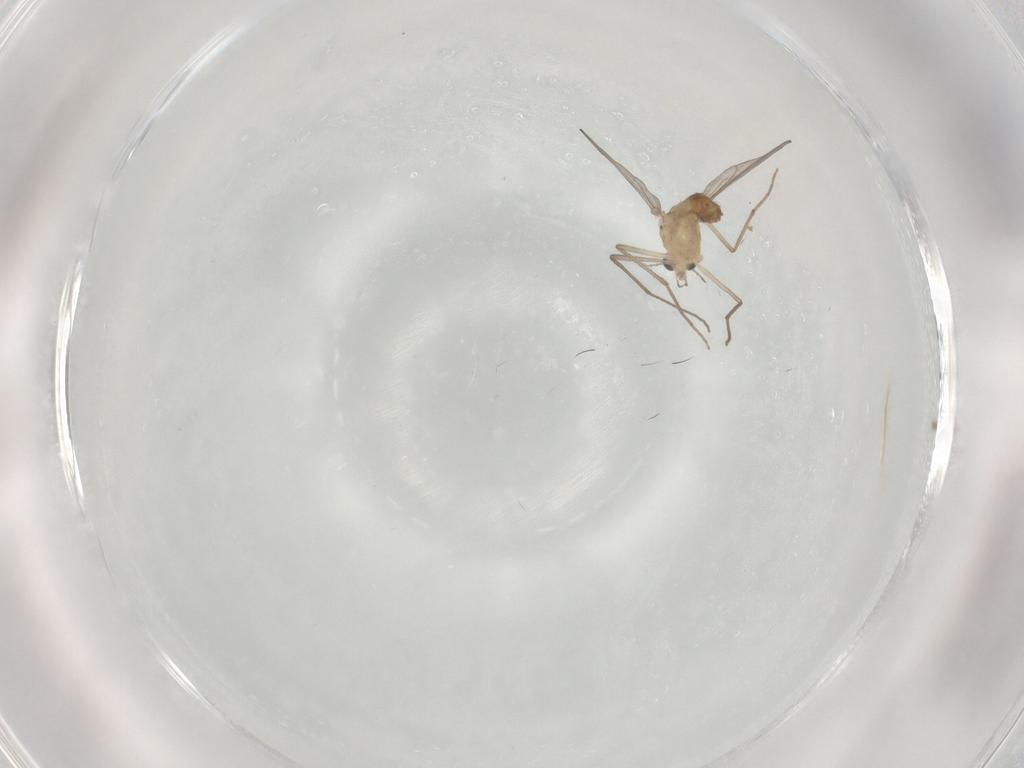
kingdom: Animalia
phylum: Arthropoda
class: Insecta
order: Diptera
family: Chironomidae
